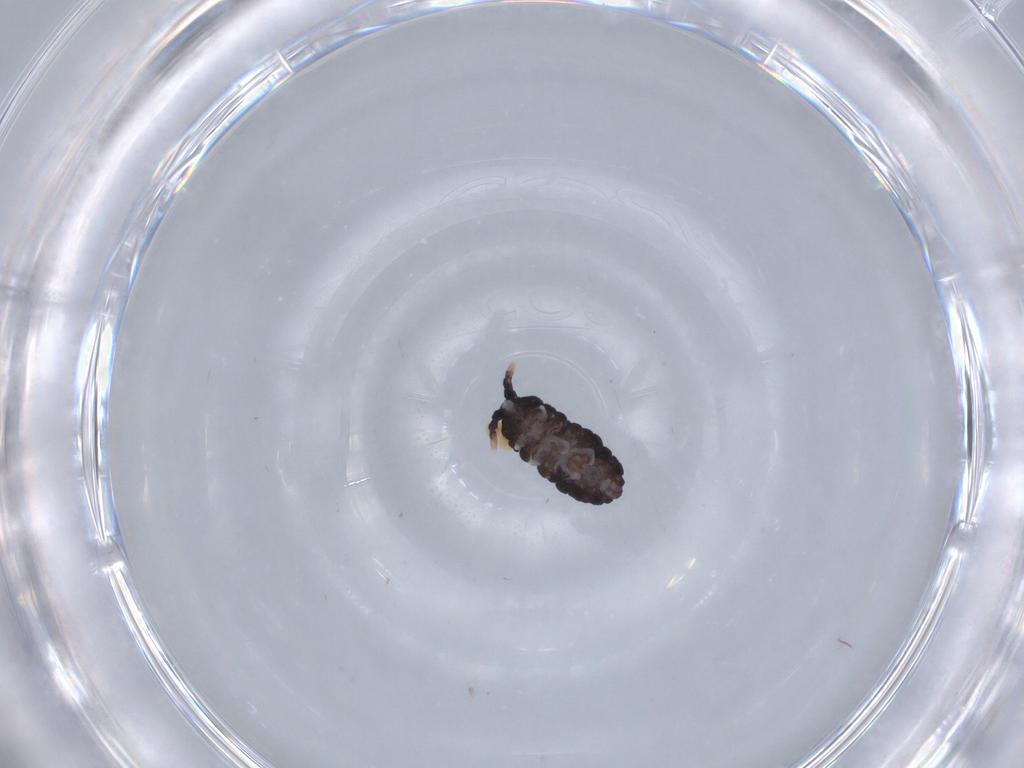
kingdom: Animalia
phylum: Arthropoda
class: Collembola
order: Poduromorpha
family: Neanuridae
